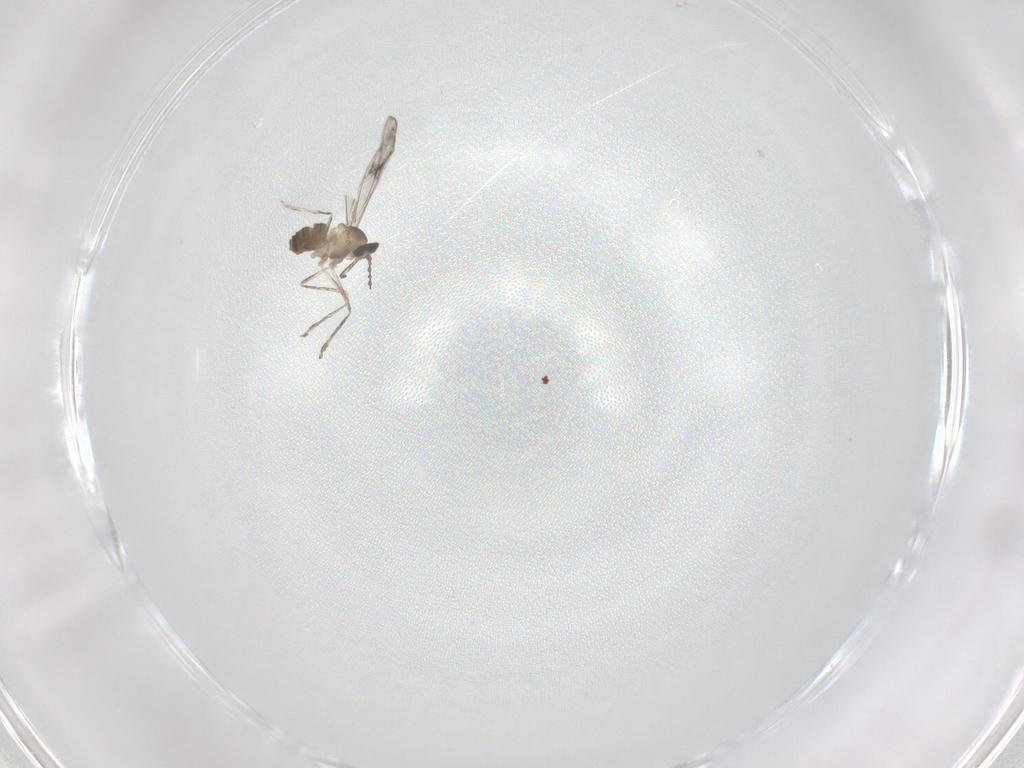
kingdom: Animalia
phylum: Arthropoda
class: Insecta
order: Diptera
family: Cecidomyiidae
